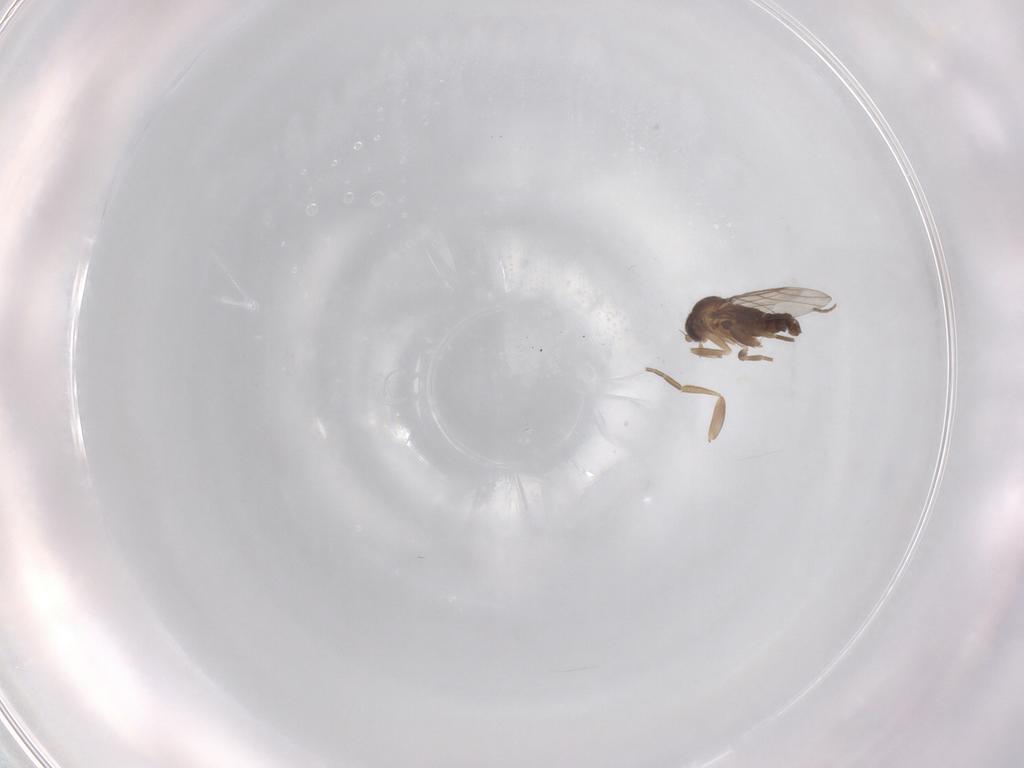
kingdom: Animalia
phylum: Arthropoda
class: Insecta
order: Diptera
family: Phoridae
